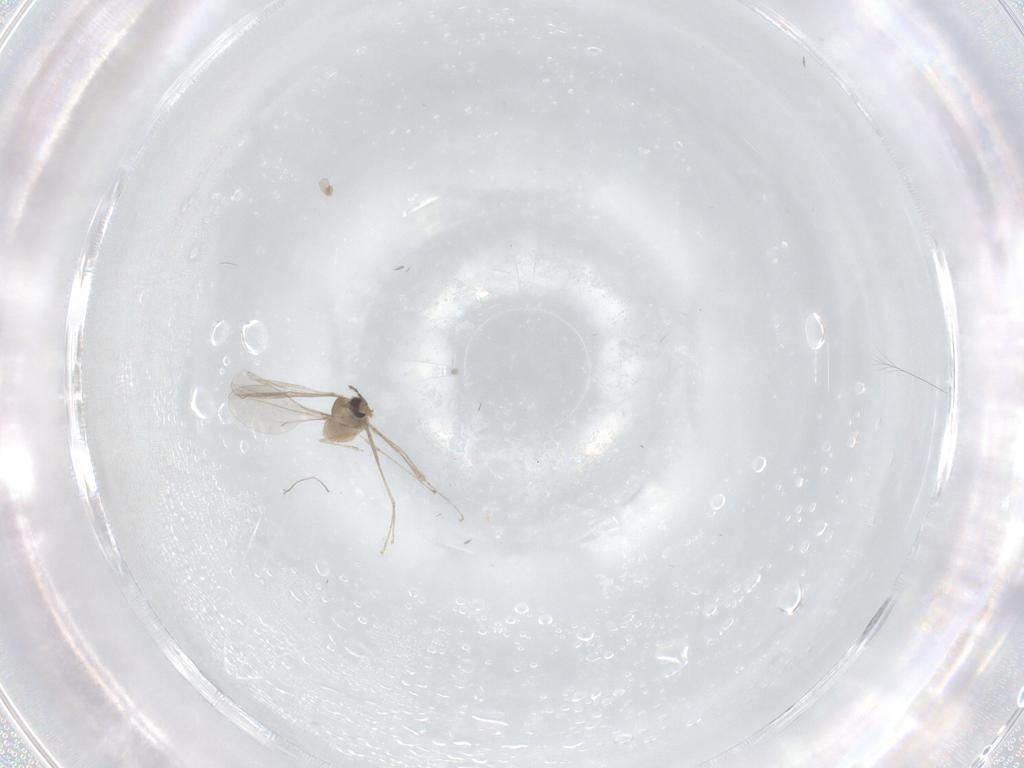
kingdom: Animalia
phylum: Arthropoda
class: Insecta
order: Diptera
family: Cecidomyiidae
